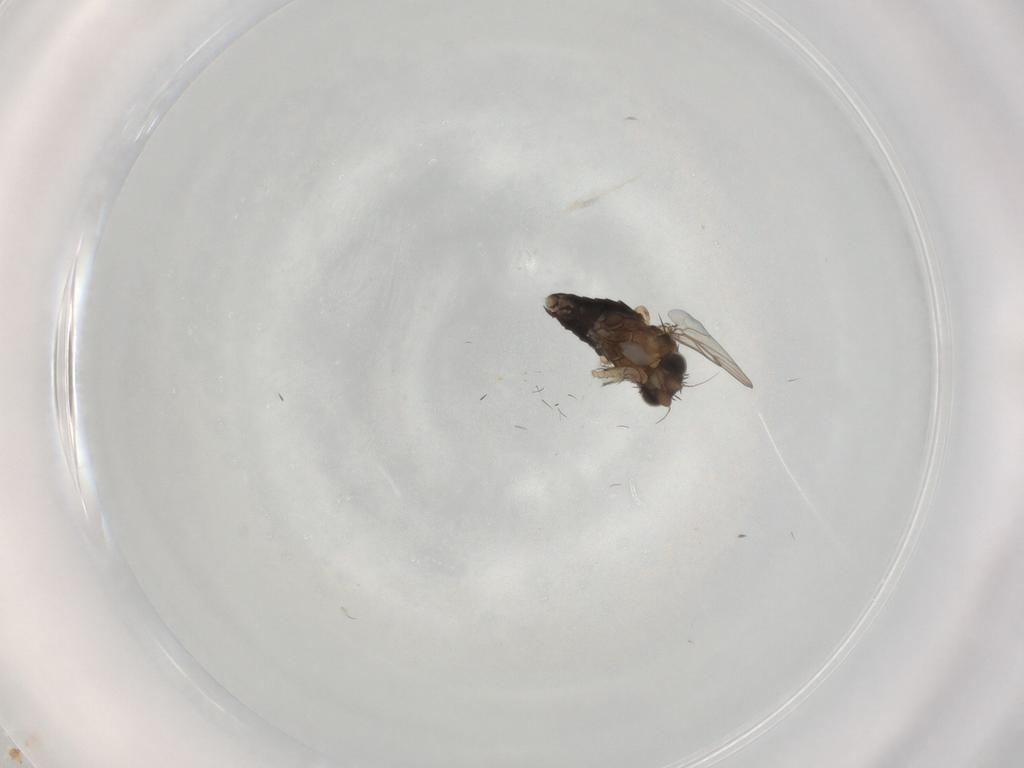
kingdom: Animalia
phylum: Arthropoda
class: Insecta
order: Diptera
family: Phoridae
